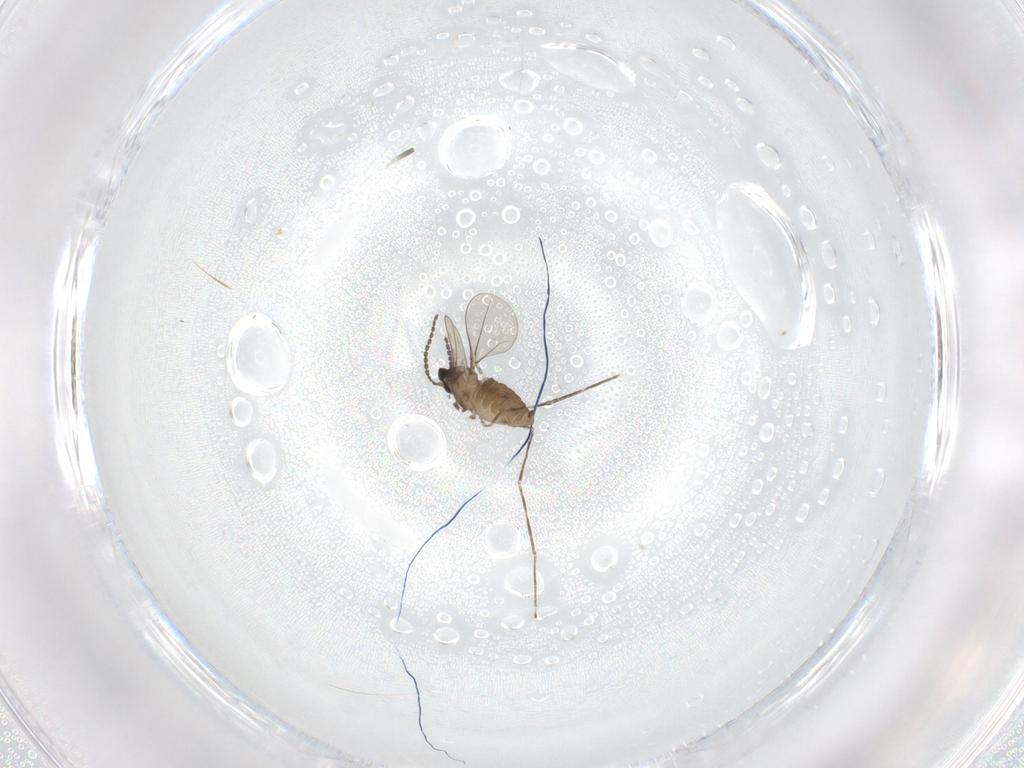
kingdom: Animalia
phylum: Arthropoda
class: Insecta
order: Diptera
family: Cecidomyiidae
